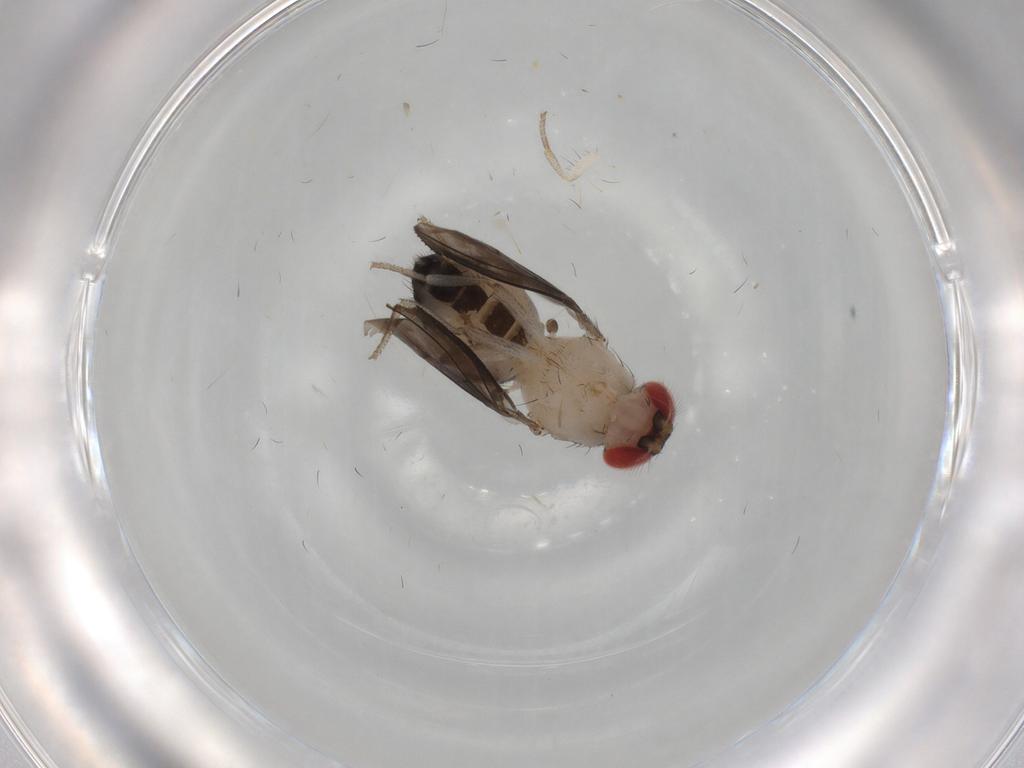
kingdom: Animalia
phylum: Arthropoda
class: Insecta
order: Diptera
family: Drosophilidae
